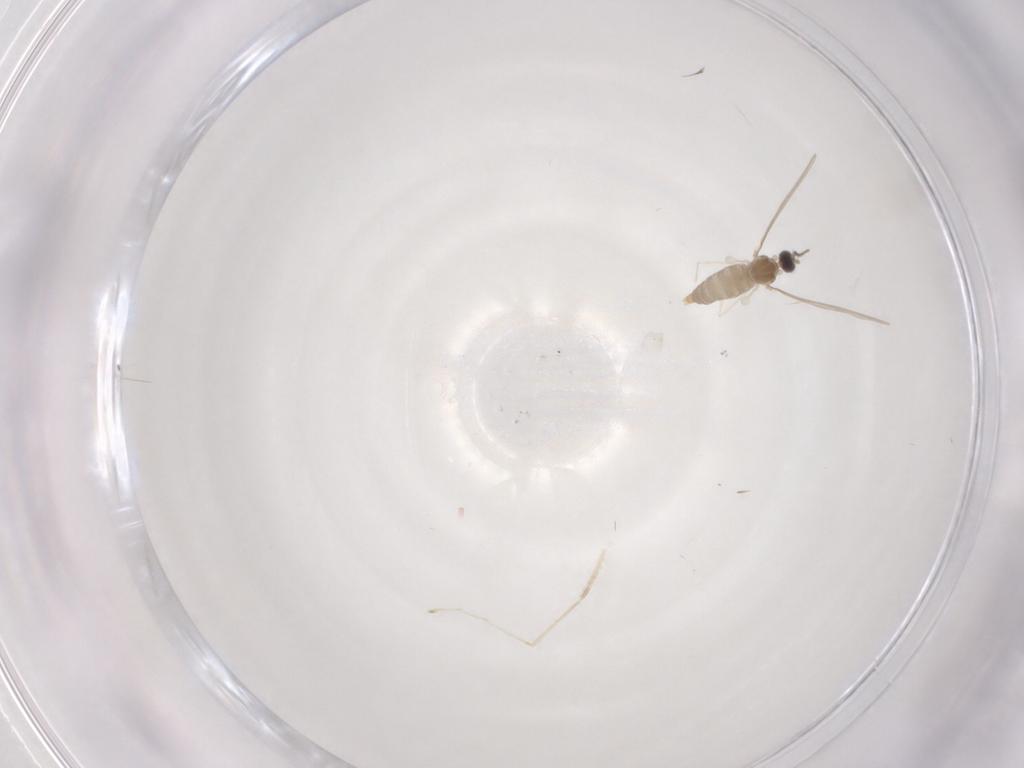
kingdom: Animalia
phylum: Arthropoda
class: Insecta
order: Diptera
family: Cecidomyiidae
